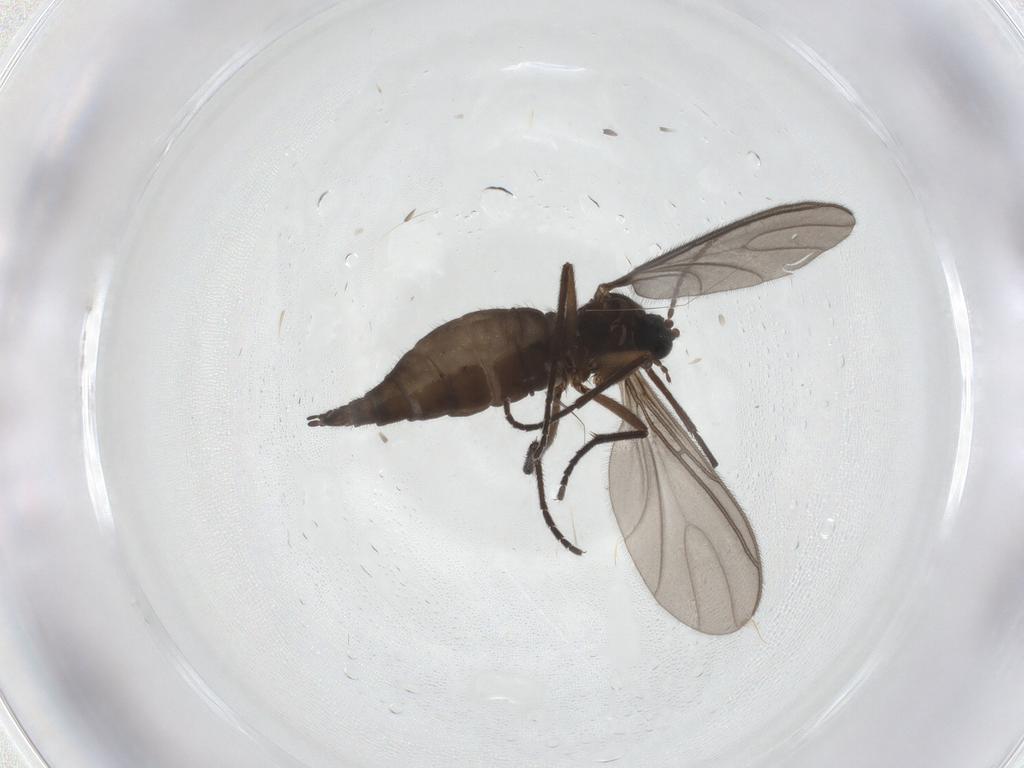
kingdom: Animalia
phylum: Arthropoda
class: Insecta
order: Diptera
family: Sciaridae
